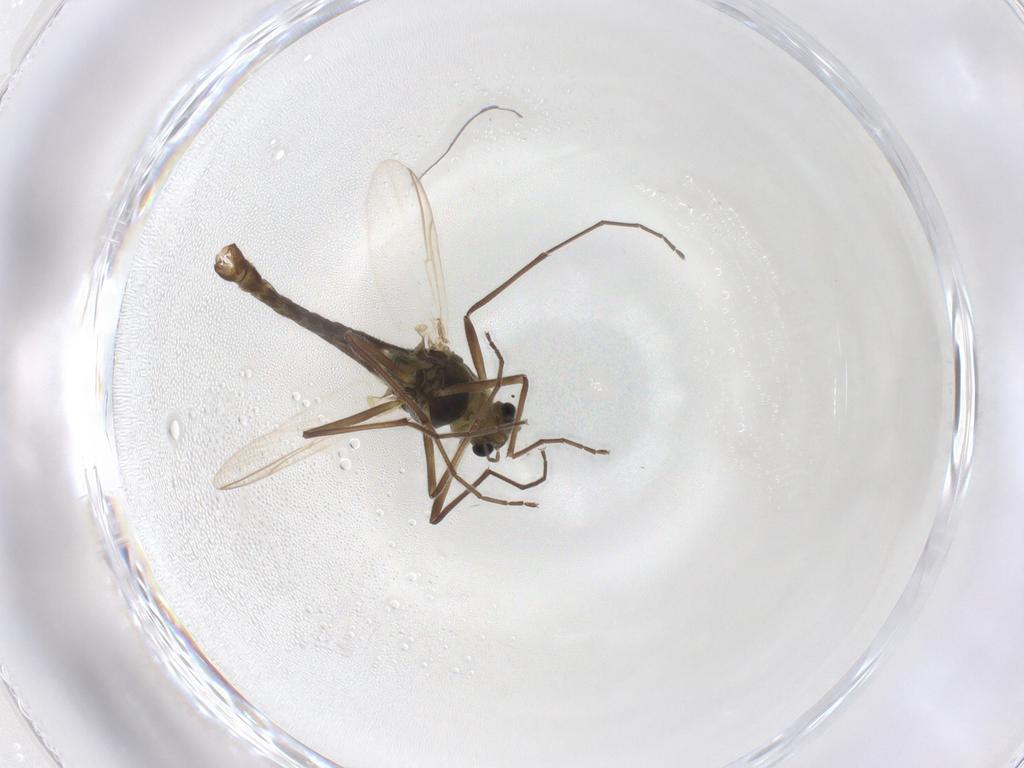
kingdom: Animalia
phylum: Arthropoda
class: Insecta
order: Diptera
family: Chironomidae
